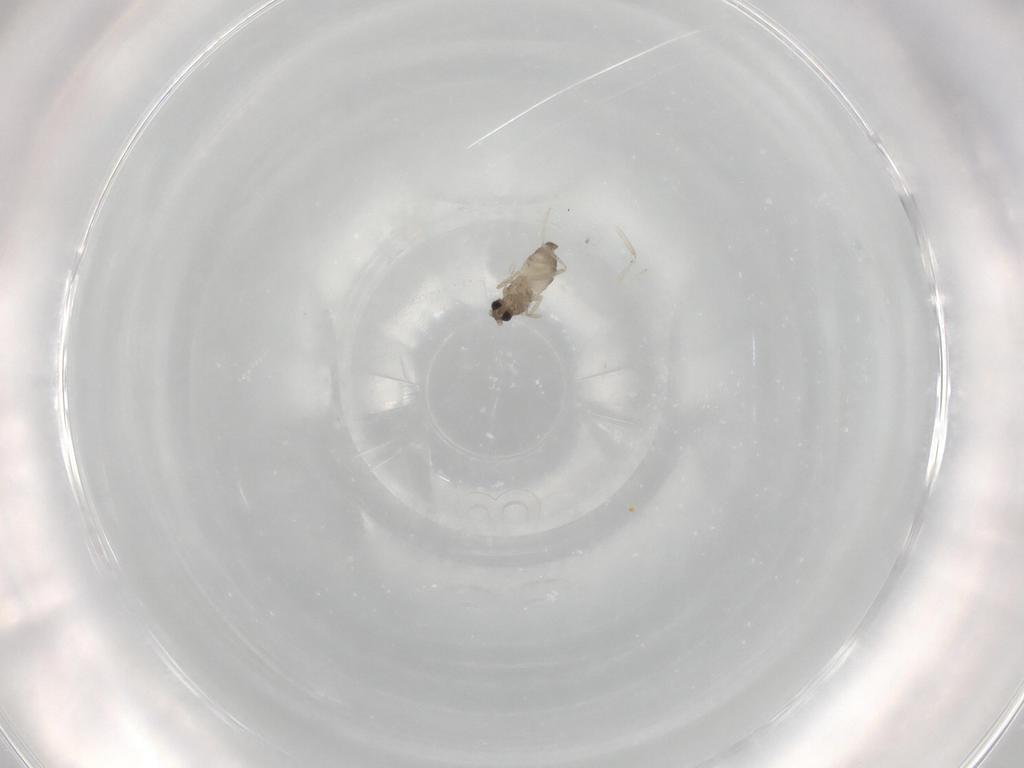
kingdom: Animalia
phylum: Arthropoda
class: Insecta
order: Diptera
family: Cecidomyiidae
